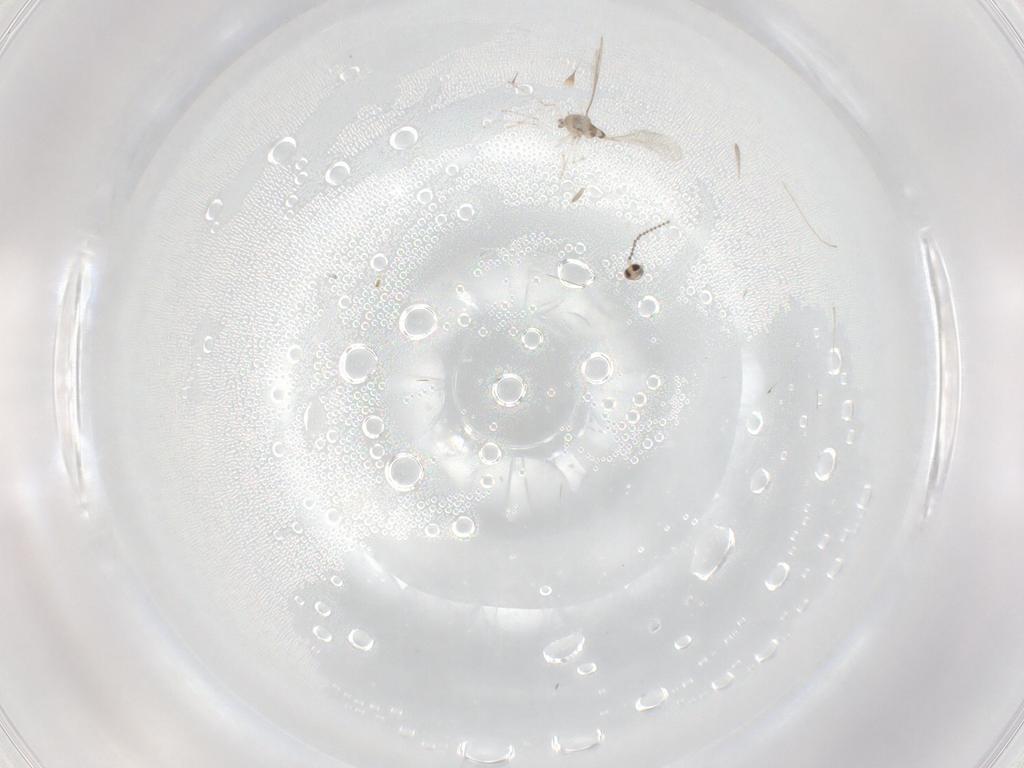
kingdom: Animalia
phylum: Arthropoda
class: Insecta
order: Diptera
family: Cecidomyiidae
